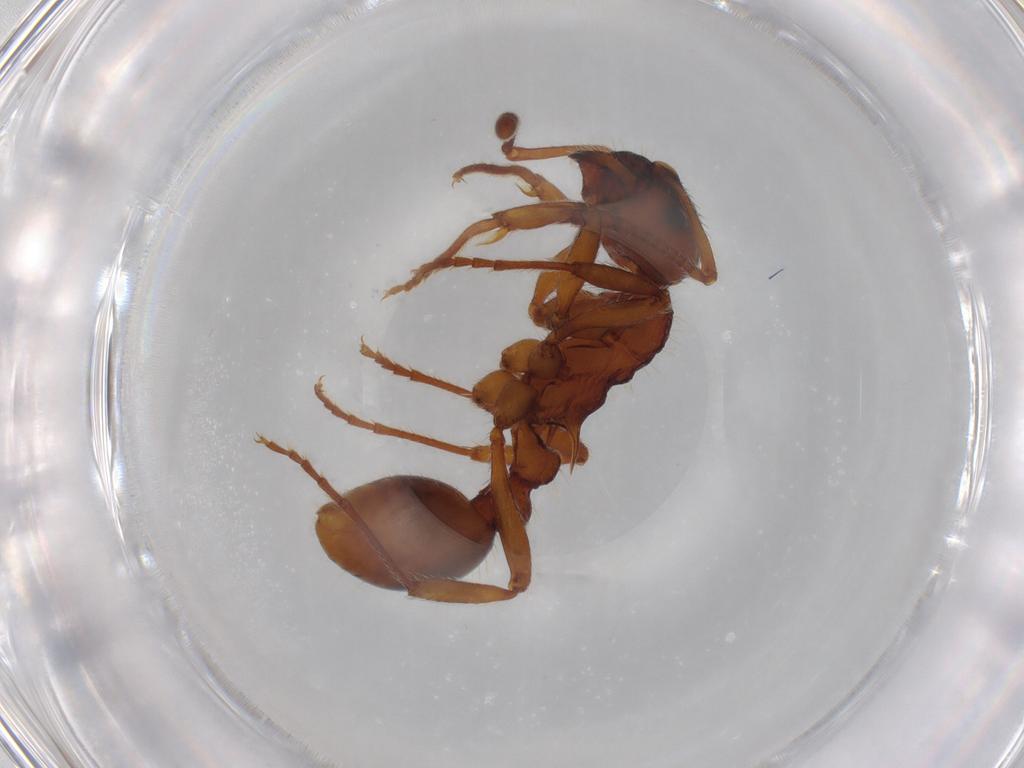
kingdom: Animalia
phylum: Arthropoda
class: Insecta
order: Hymenoptera
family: Formicidae
